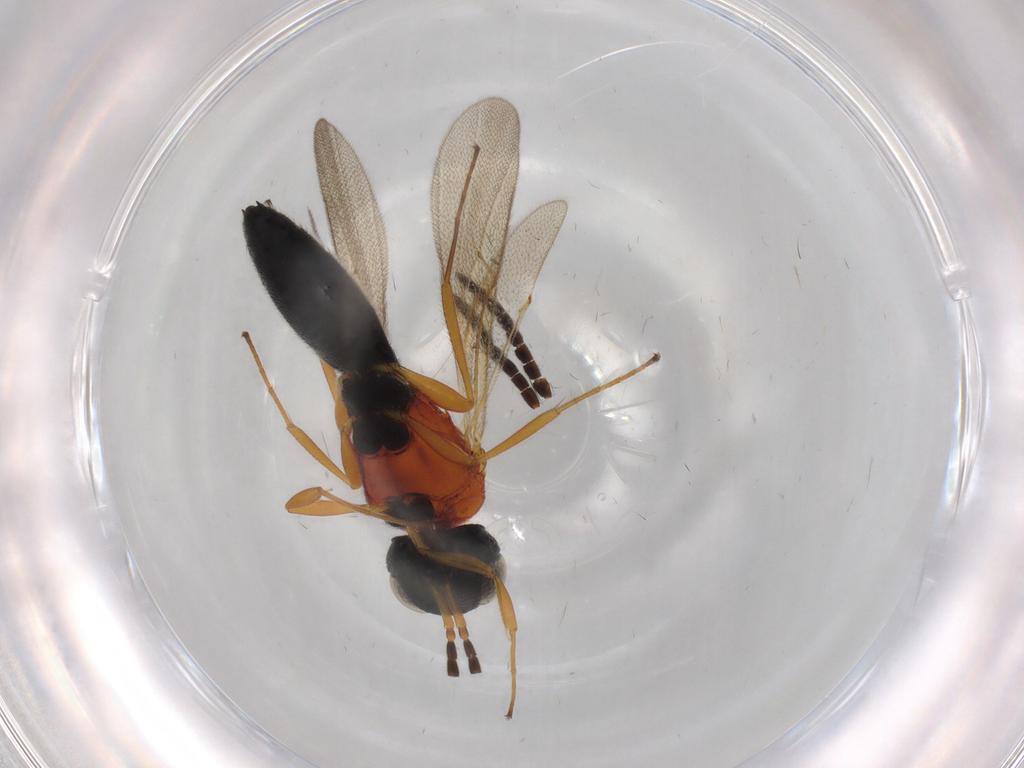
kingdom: Animalia
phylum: Arthropoda
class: Insecta
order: Hymenoptera
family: Scelionidae
